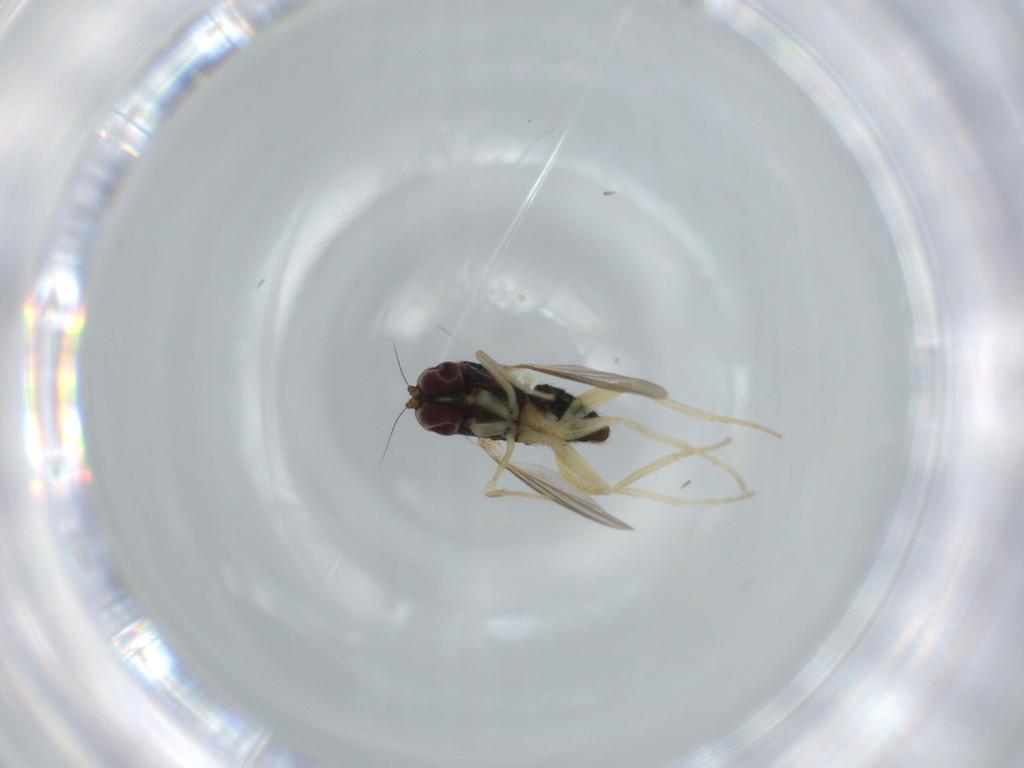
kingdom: Animalia
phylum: Arthropoda
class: Insecta
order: Diptera
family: Dolichopodidae
